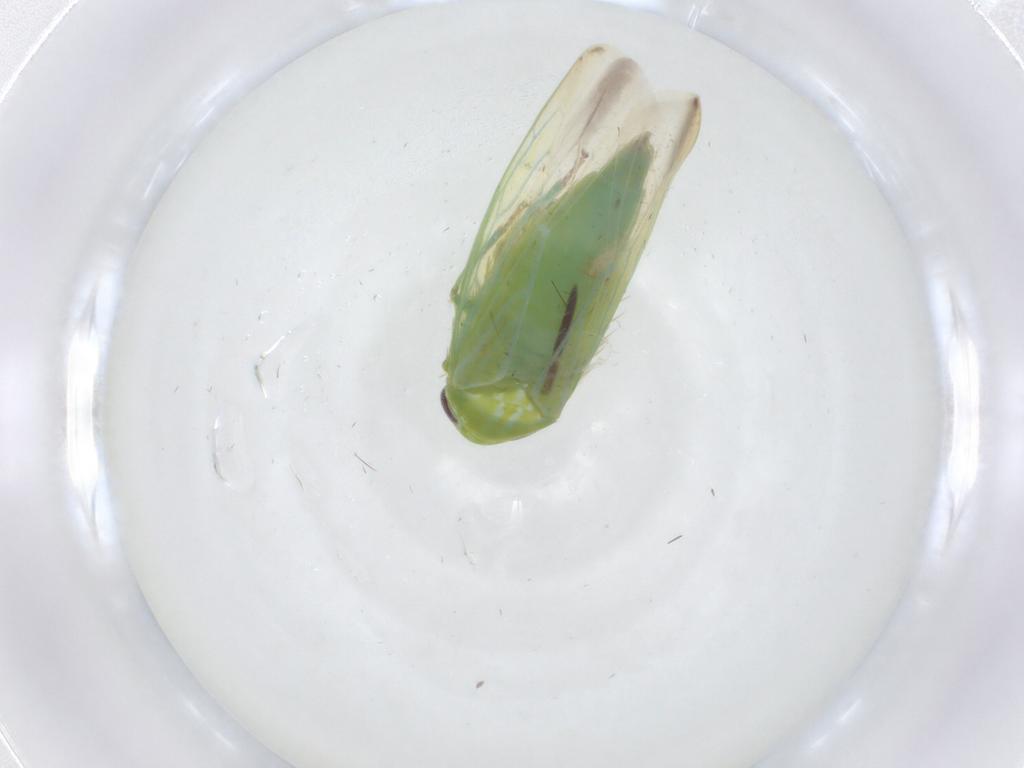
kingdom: Animalia
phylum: Arthropoda
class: Insecta
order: Hemiptera
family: Cicadellidae
